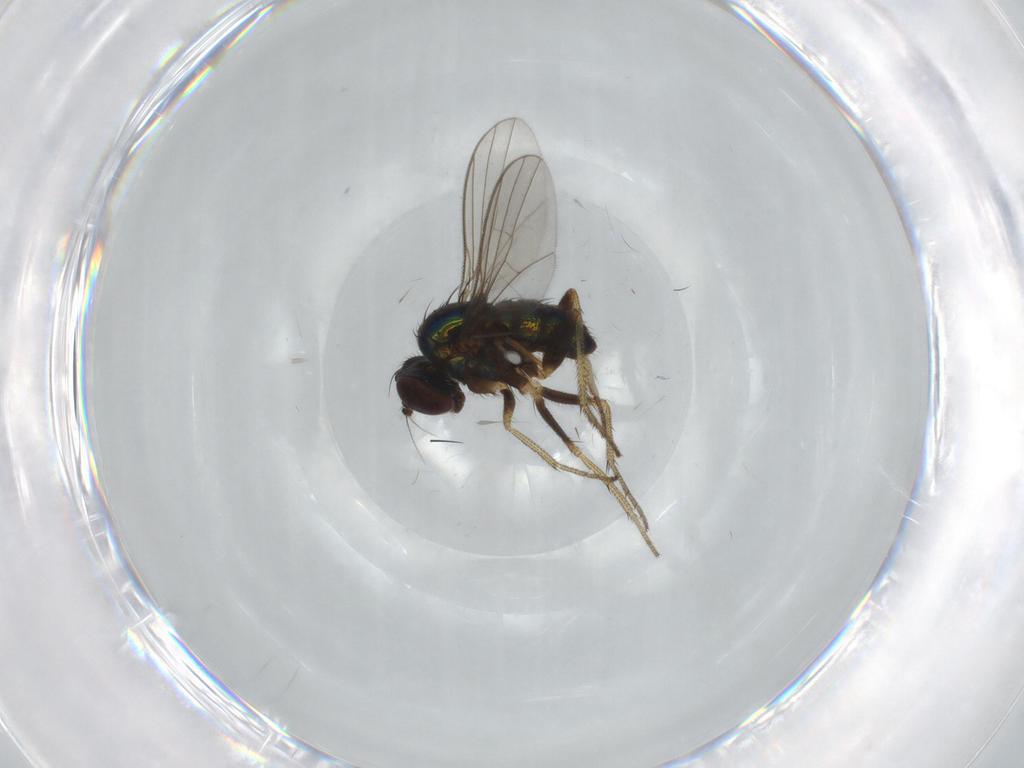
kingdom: Animalia
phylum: Arthropoda
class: Insecta
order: Diptera
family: Chironomidae
